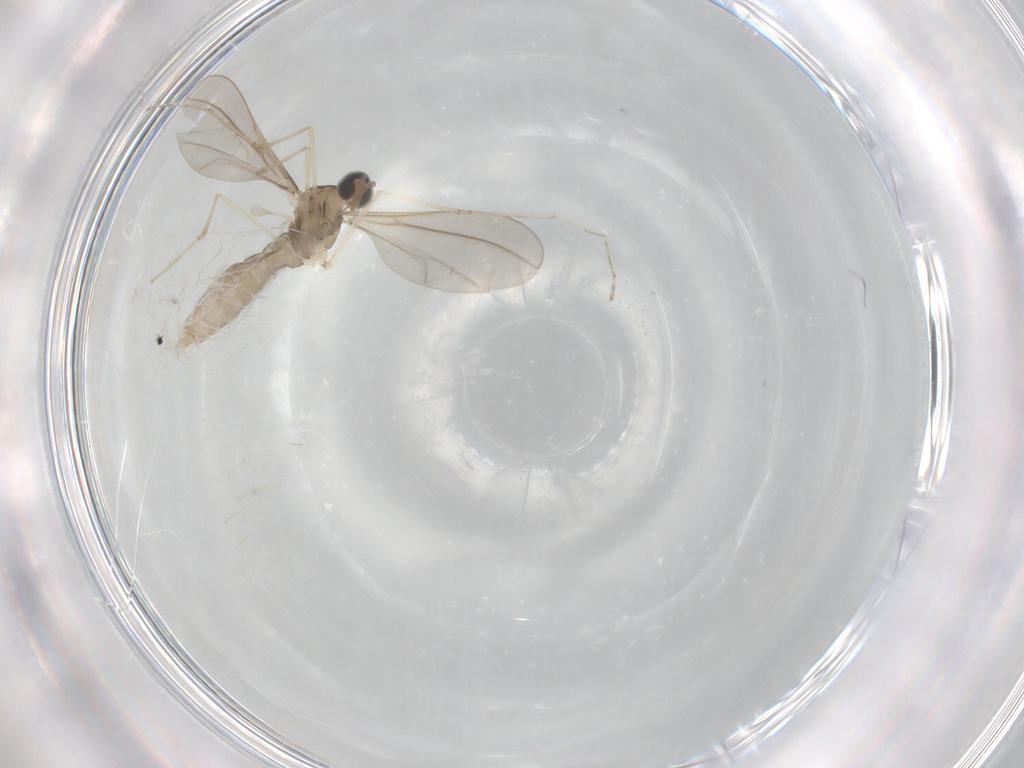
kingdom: Animalia
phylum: Arthropoda
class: Insecta
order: Diptera
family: Cecidomyiidae
